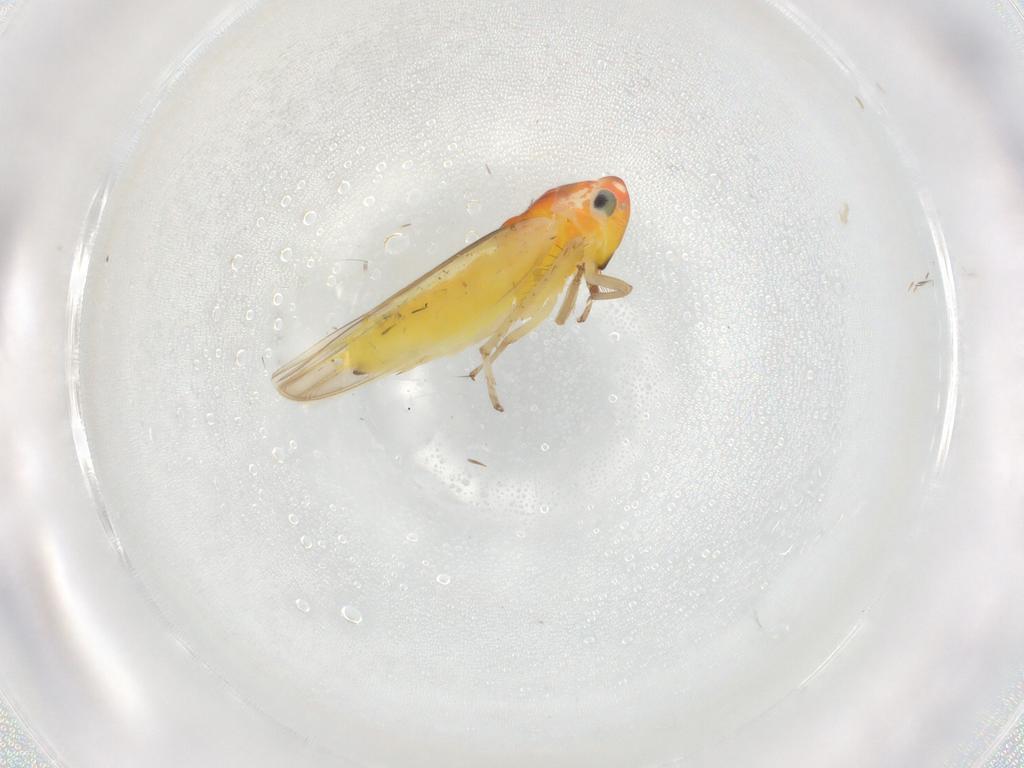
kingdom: Animalia
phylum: Arthropoda
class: Insecta
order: Hemiptera
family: Cicadellidae
